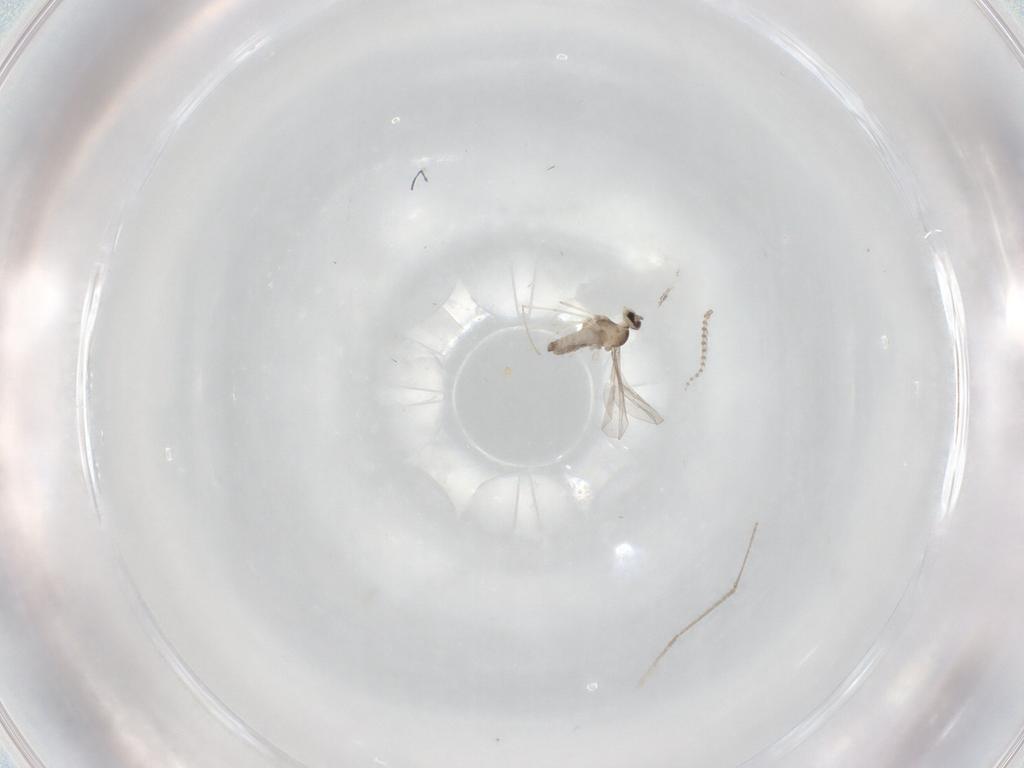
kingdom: Animalia
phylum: Arthropoda
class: Insecta
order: Diptera
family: Psychodidae
